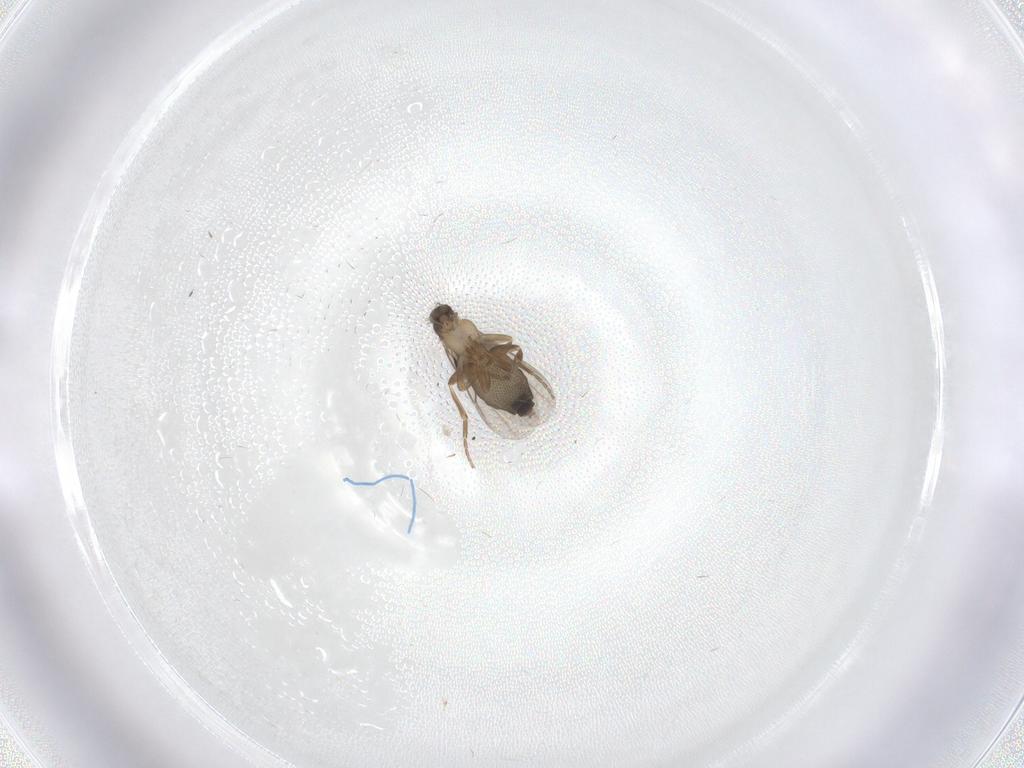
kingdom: Animalia
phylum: Arthropoda
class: Insecta
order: Diptera
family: Phoridae
